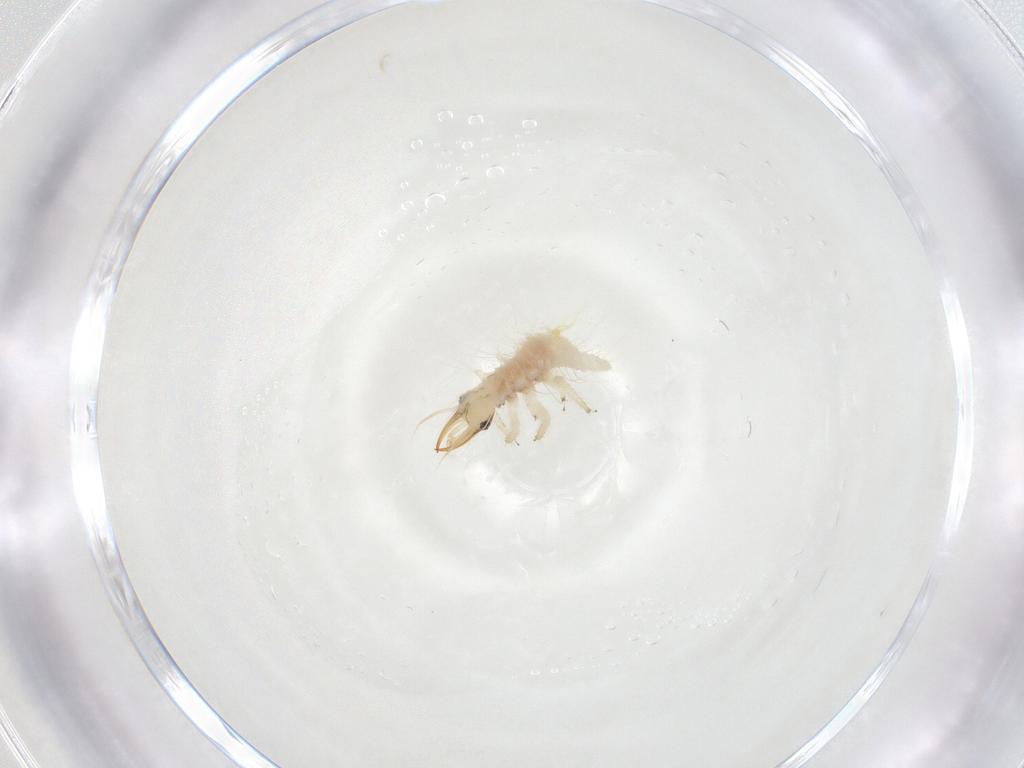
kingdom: Animalia
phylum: Arthropoda
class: Insecta
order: Neuroptera
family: Chrysopidae
